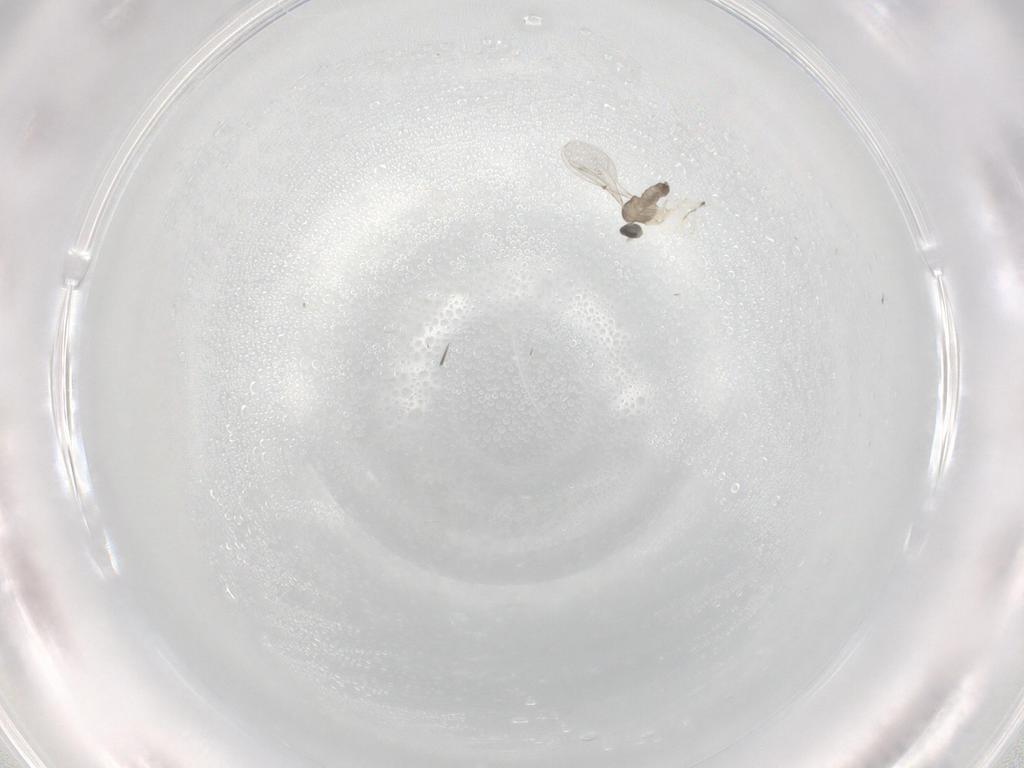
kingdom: Animalia
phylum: Arthropoda
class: Insecta
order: Diptera
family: Cecidomyiidae
